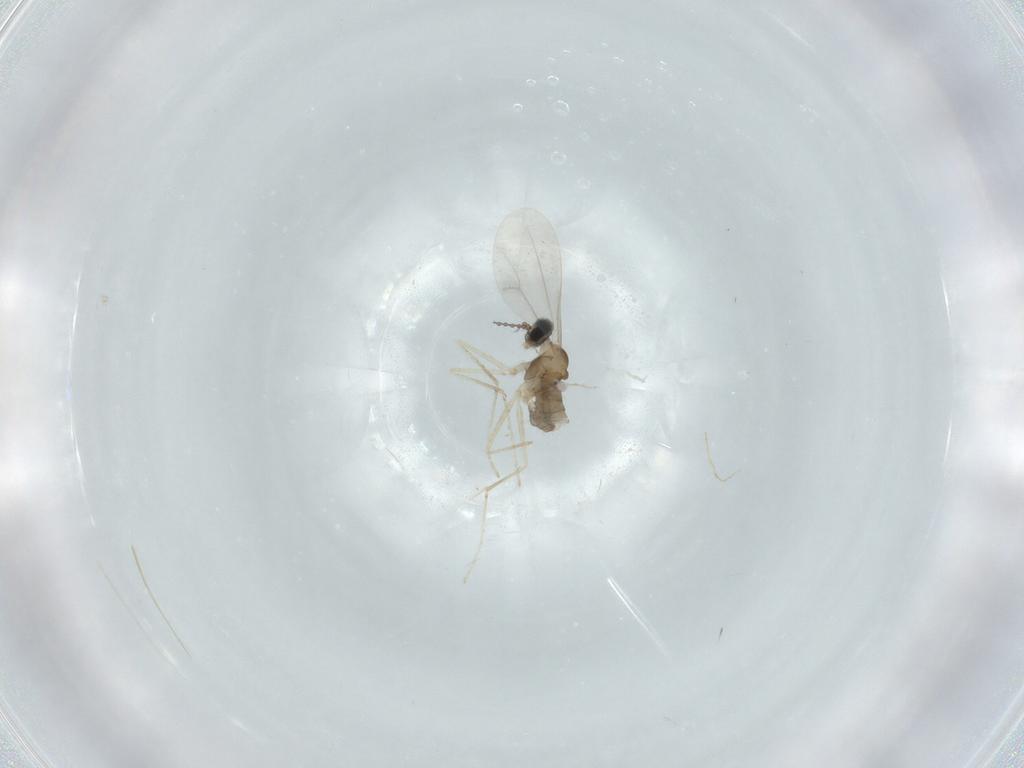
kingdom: Animalia
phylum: Arthropoda
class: Insecta
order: Diptera
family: Cecidomyiidae
